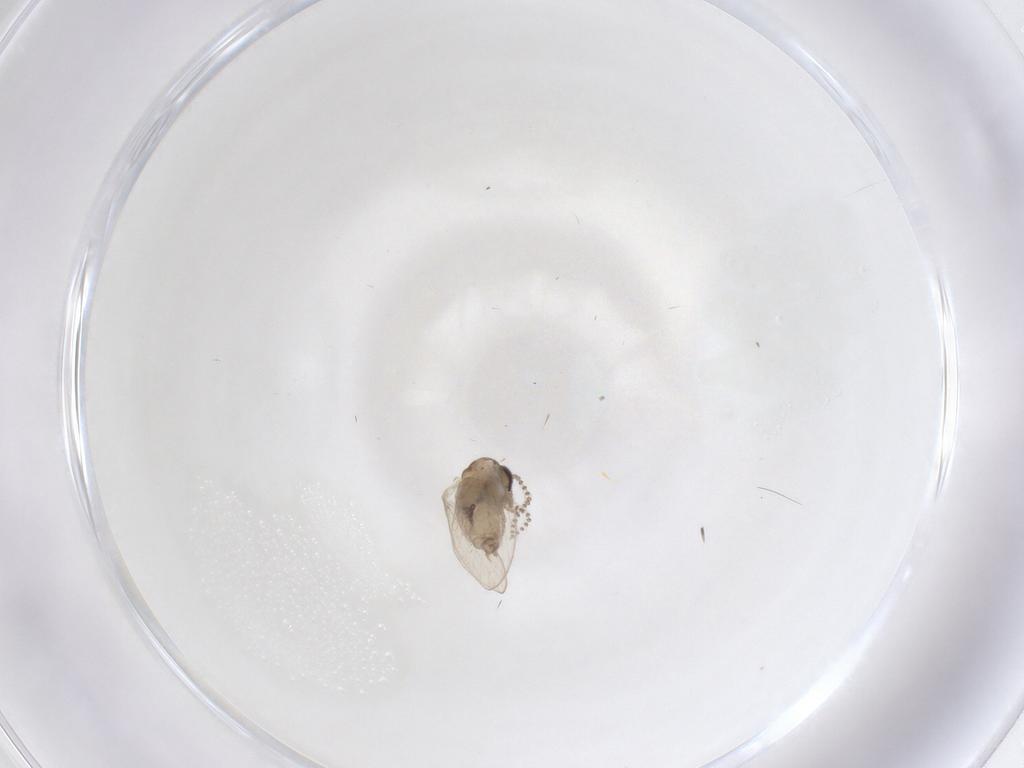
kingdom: Animalia
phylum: Arthropoda
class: Insecta
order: Diptera
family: Psychodidae
